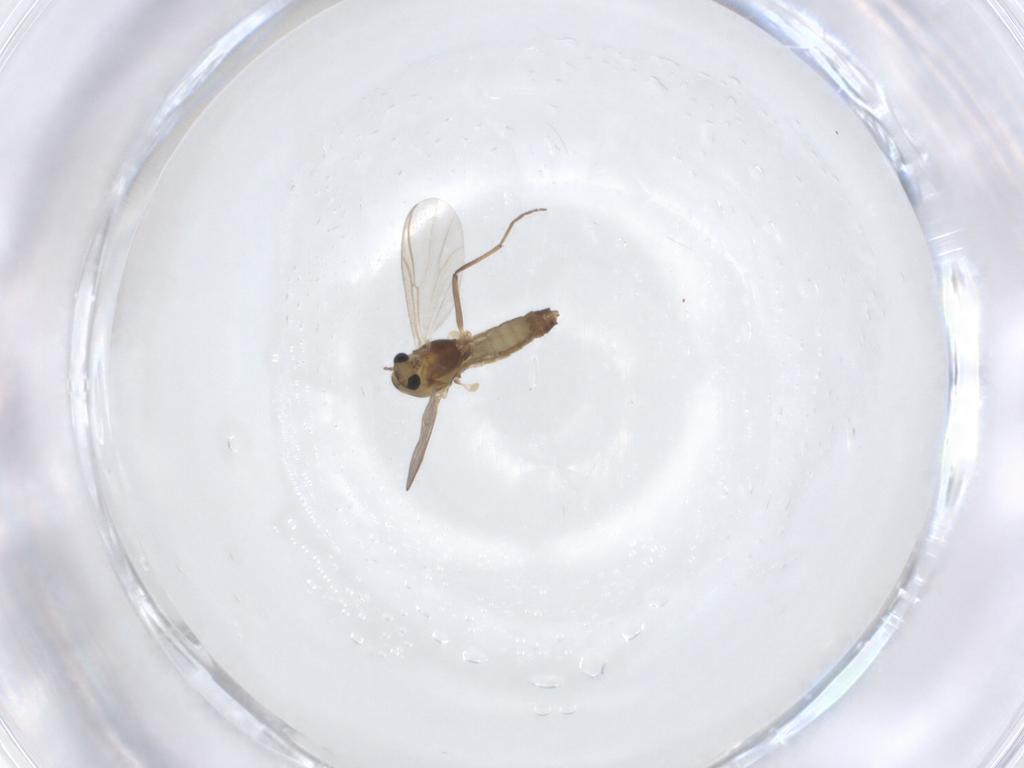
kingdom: Animalia
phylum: Arthropoda
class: Insecta
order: Diptera
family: Chironomidae
